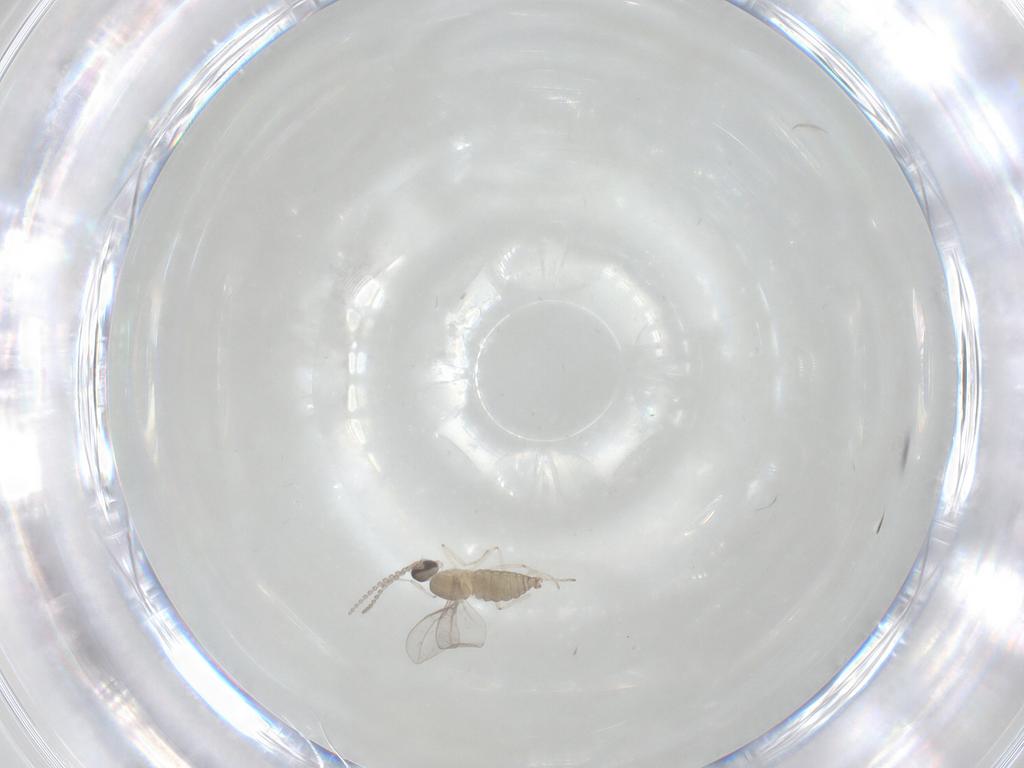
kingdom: Animalia
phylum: Arthropoda
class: Insecta
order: Diptera
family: Cecidomyiidae
